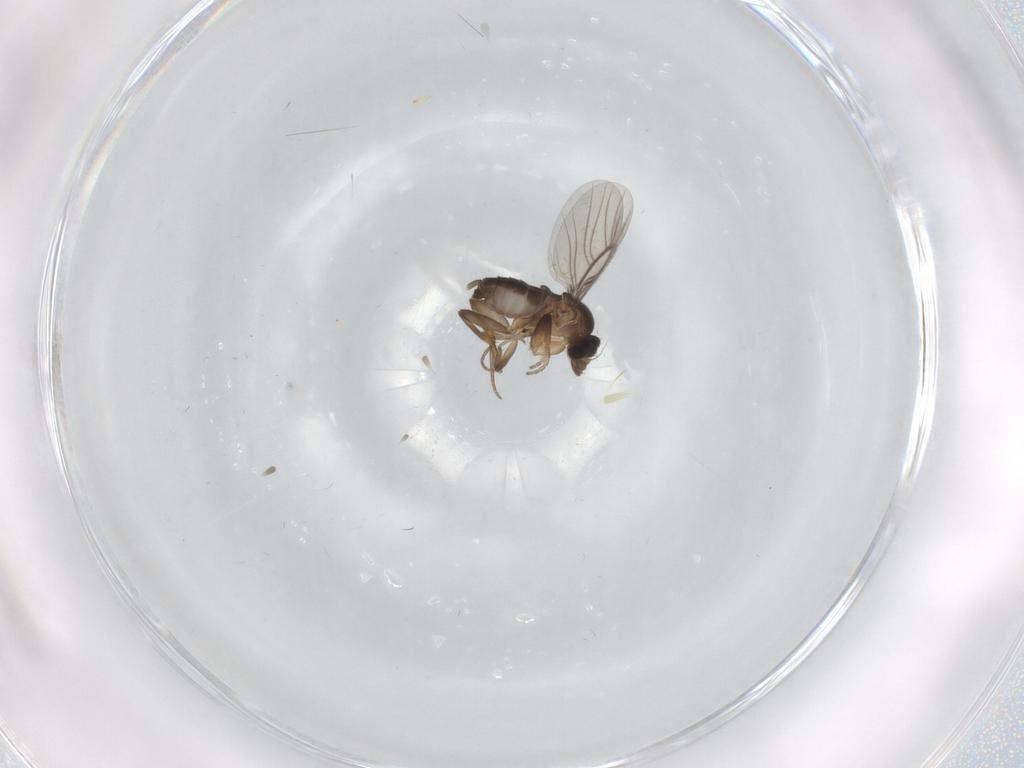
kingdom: Animalia
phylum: Arthropoda
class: Insecta
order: Diptera
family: Phoridae
